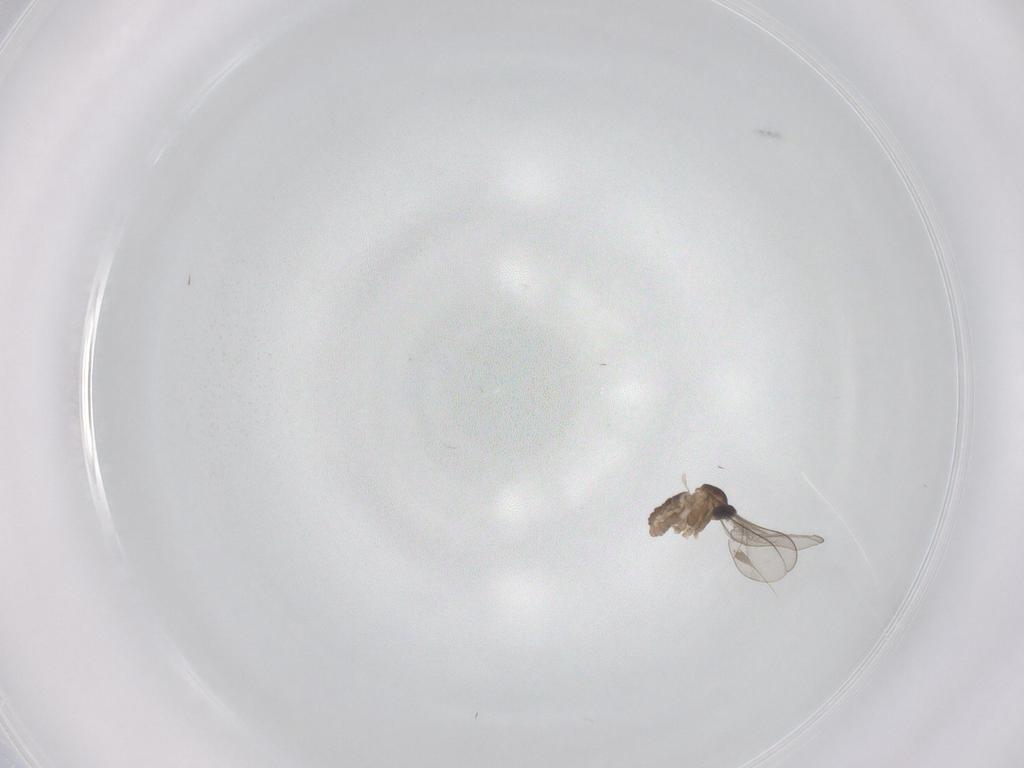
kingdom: Animalia
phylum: Arthropoda
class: Insecta
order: Diptera
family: Cecidomyiidae
